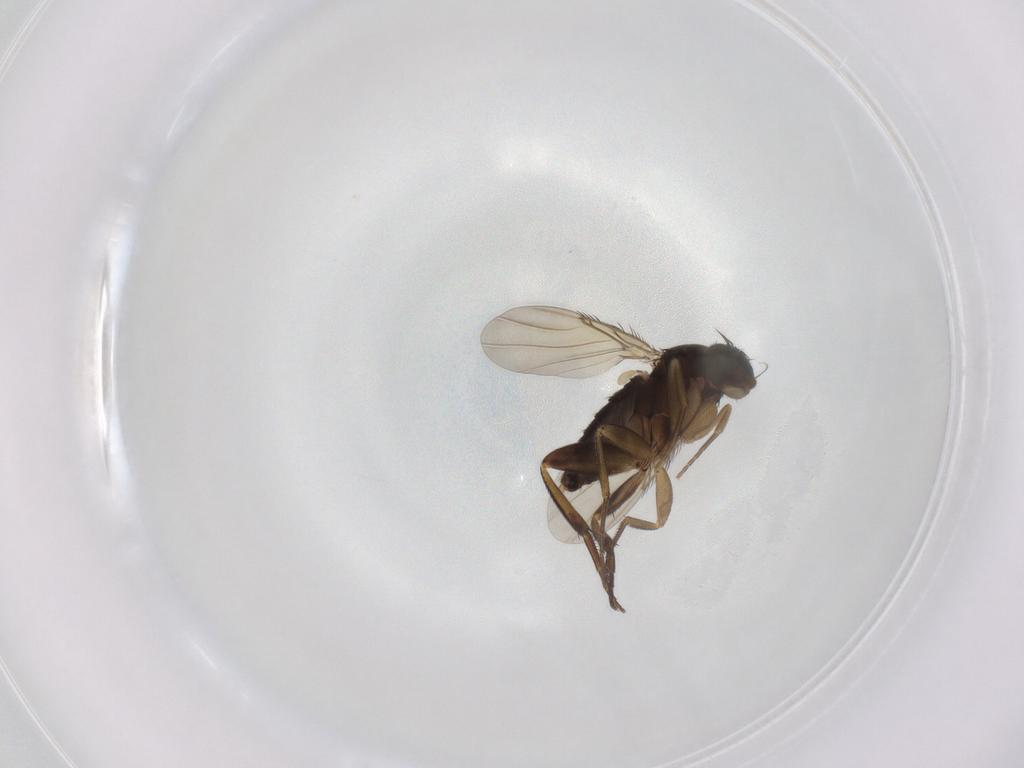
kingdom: Animalia
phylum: Arthropoda
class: Insecta
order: Diptera
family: Phoridae
